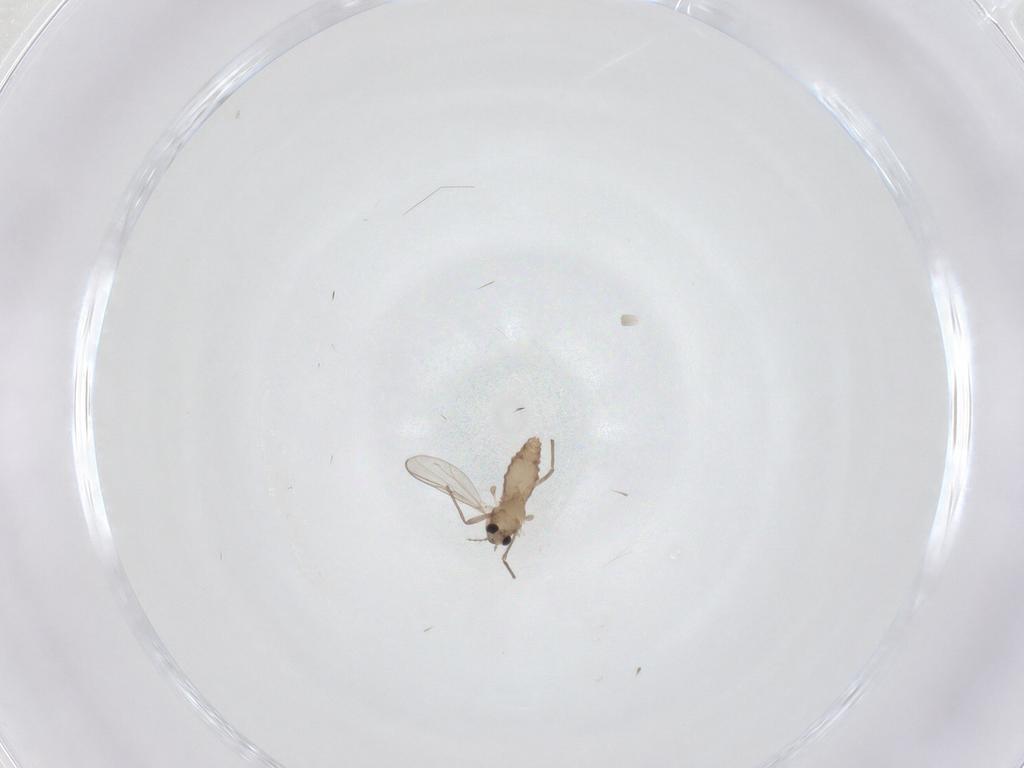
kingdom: Animalia
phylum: Arthropoda
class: Insecta
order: Diptera
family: Chironomidae
